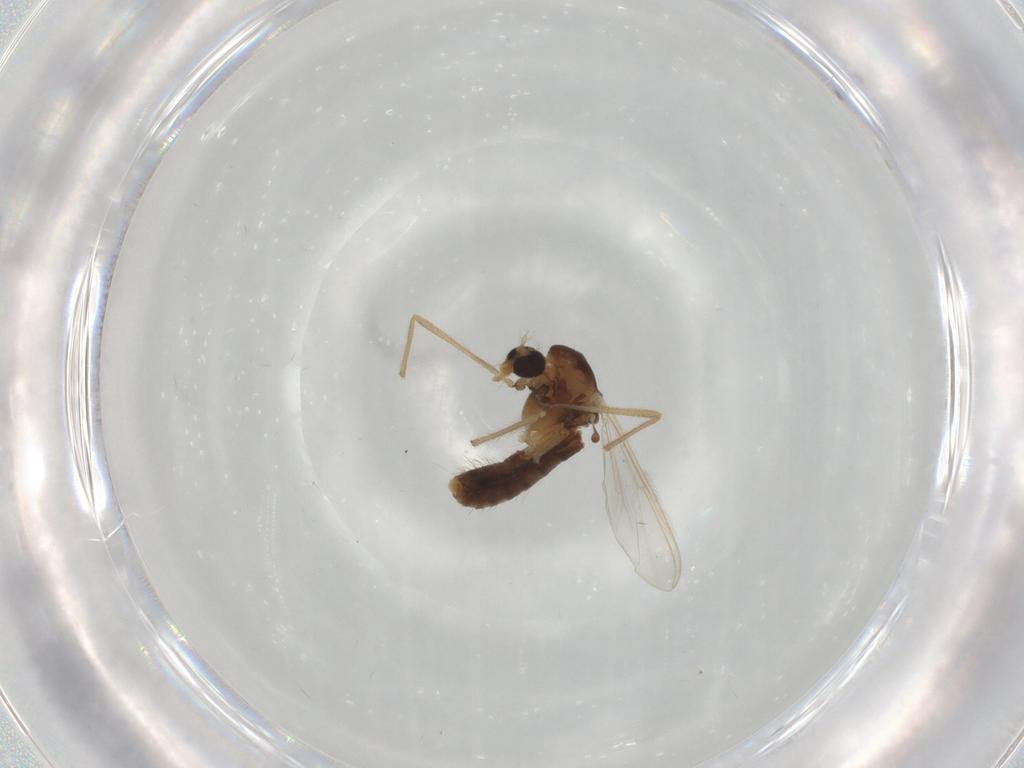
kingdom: Animalia
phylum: Arthropoda
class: Insecta
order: Diptera
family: Chironomidae
